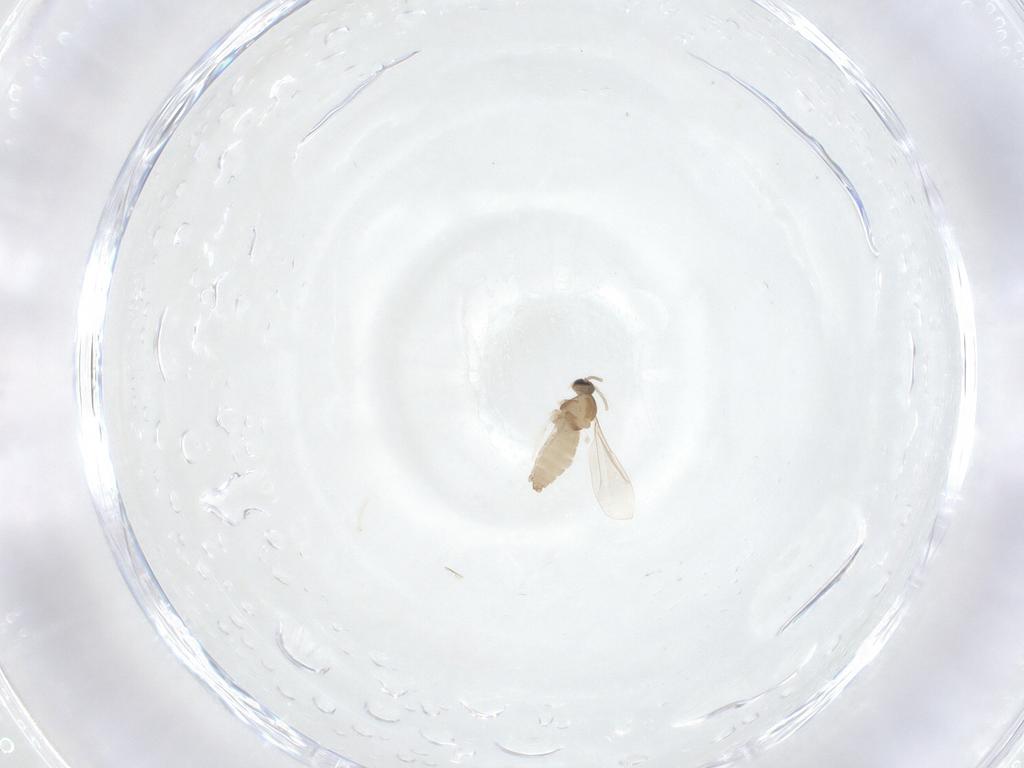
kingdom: Animalia
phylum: Arthropoda
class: Insecta
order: Diptera
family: Cecidomyiidae
